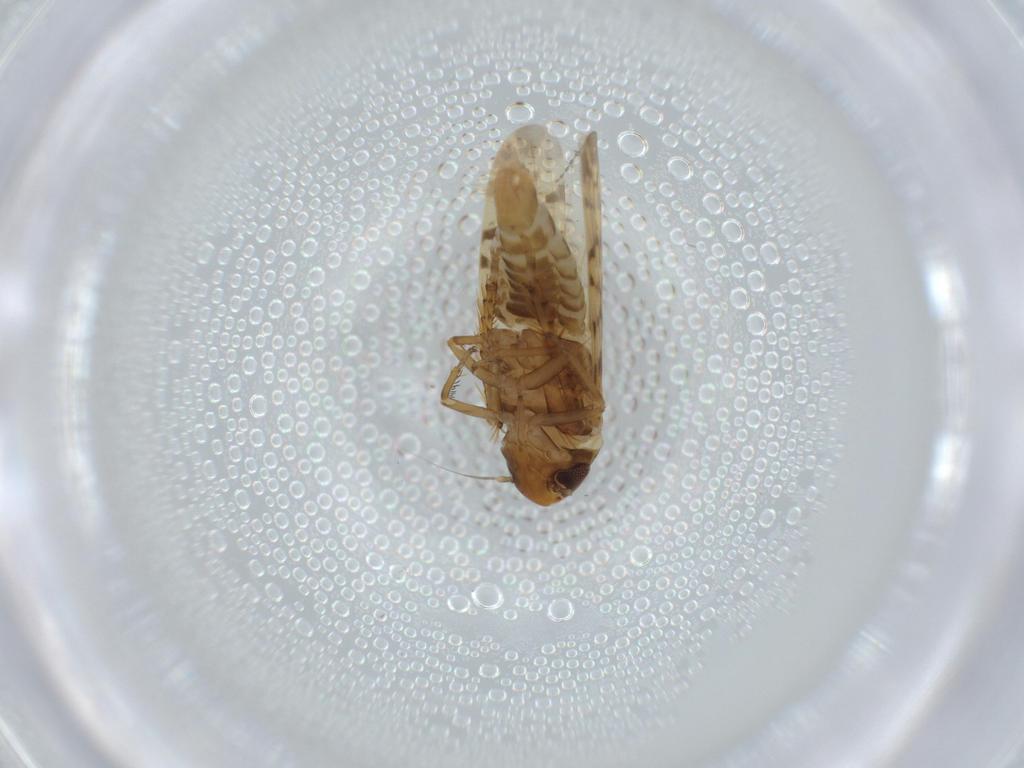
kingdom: Animalia
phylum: Arthropoda
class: Insecta
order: Hemiptera
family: Cicadellidae
